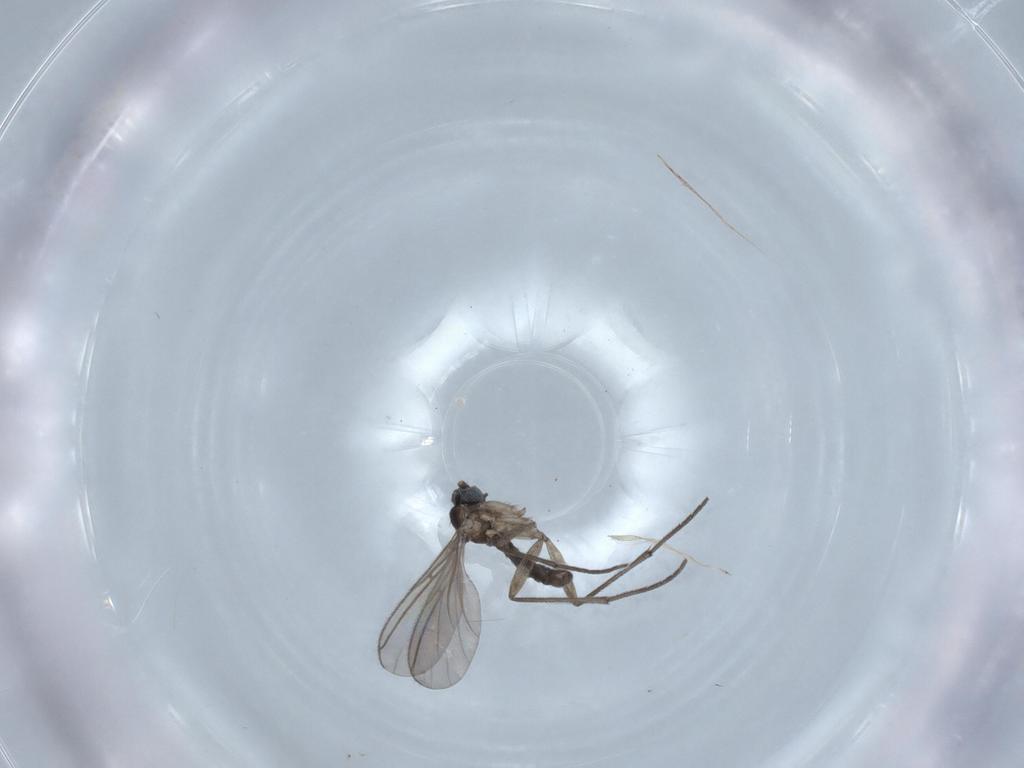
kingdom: Animalia
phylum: Arthropoda
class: Insecta
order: Diptera
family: Sciaridae
